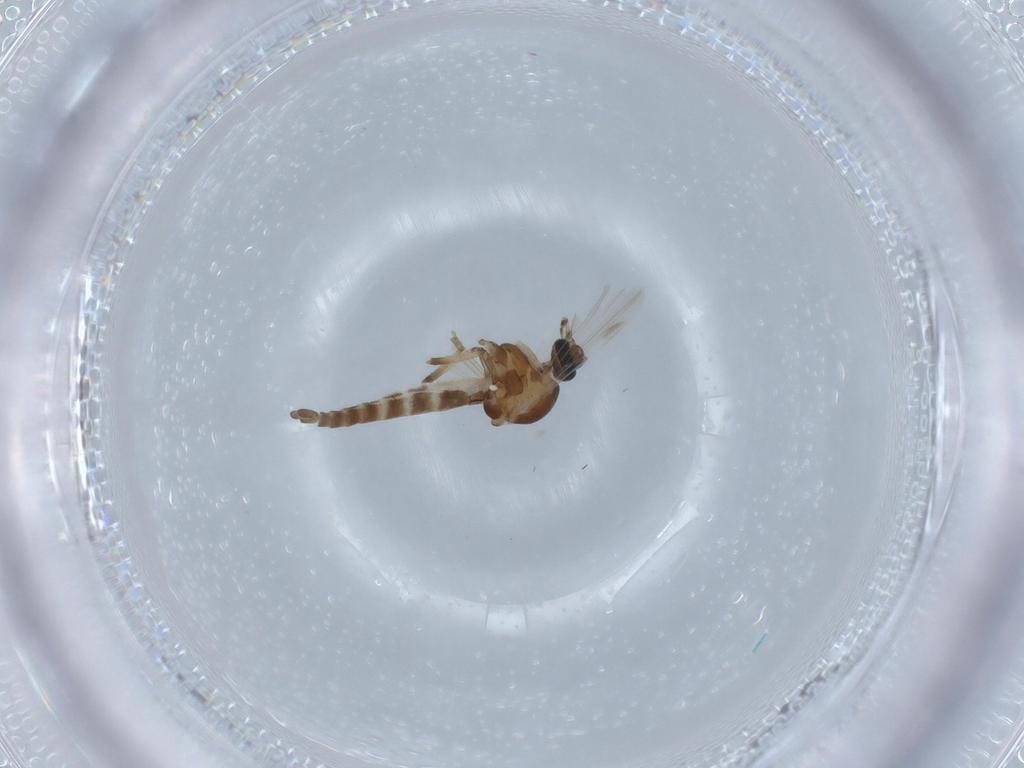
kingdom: Animalia
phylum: Arthropoda
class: Insecta
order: Diptera
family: Ceratopogonidae
